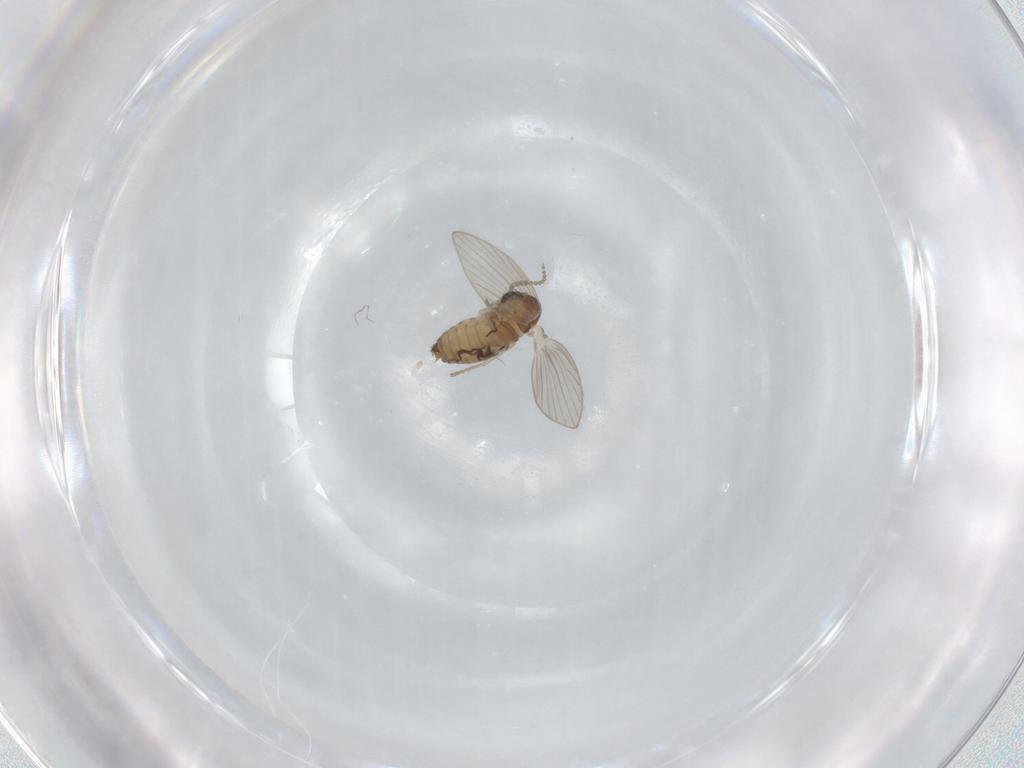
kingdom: Animalia
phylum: Arthropoda
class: Insecta
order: Diptera
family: Psychodidae
